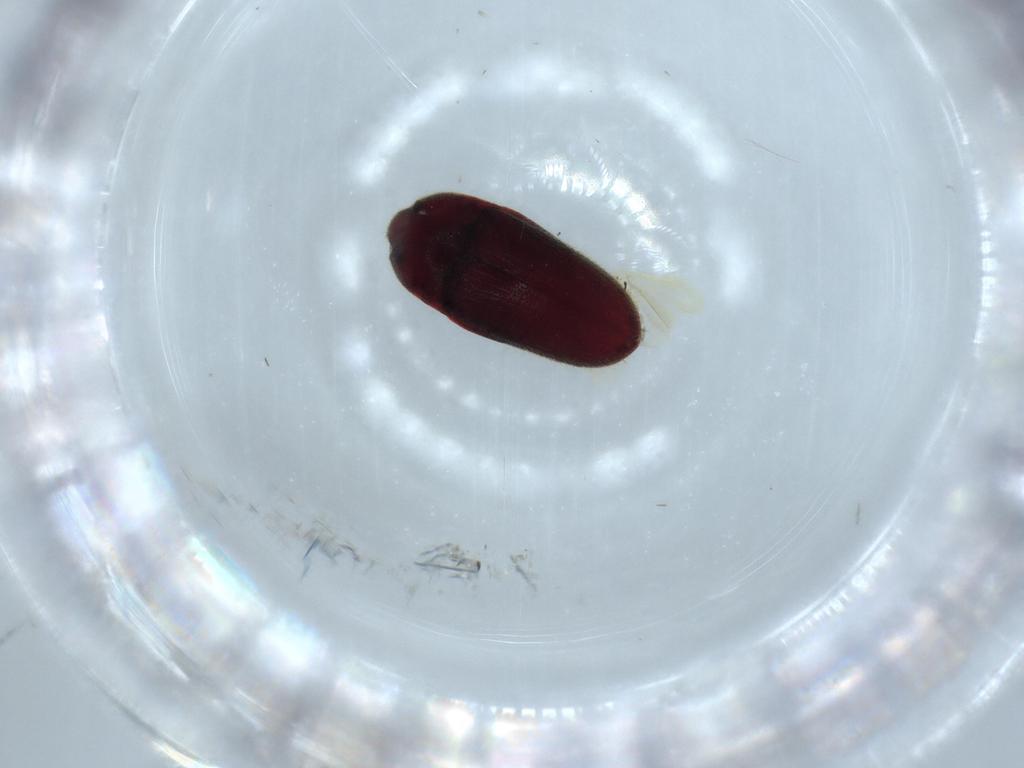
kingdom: Animalia
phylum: Arthropoda
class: Insecta
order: Coleoptera
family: Throscidae
